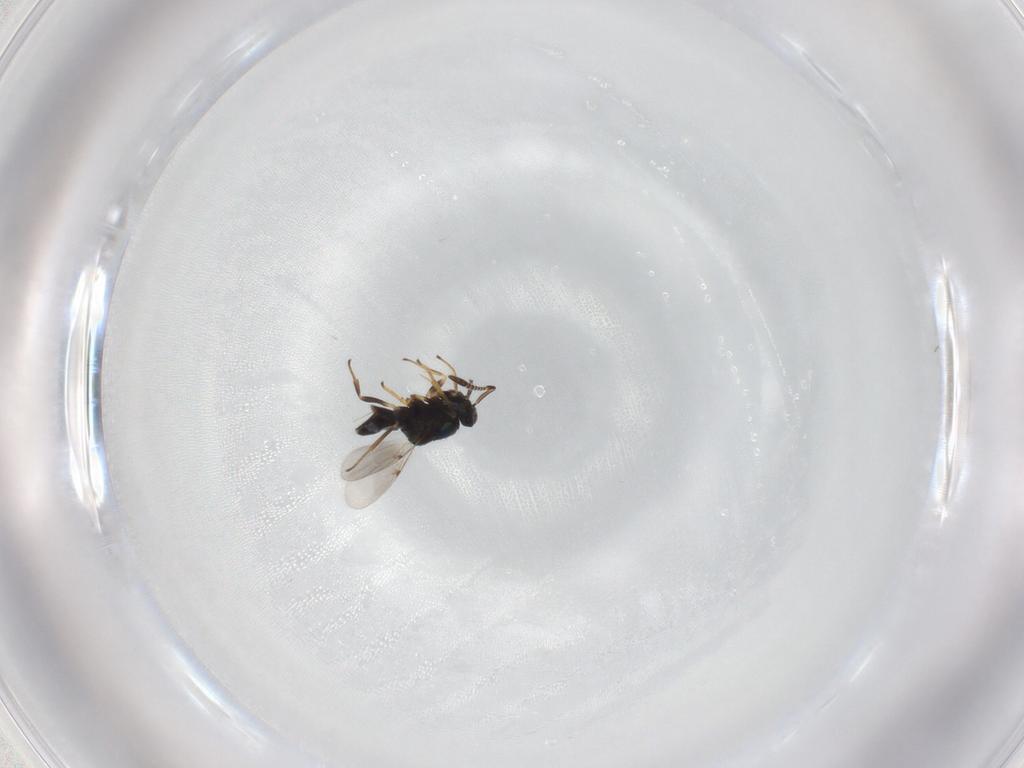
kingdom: Animalia
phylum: Arthropoda
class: Insecta
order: Hymenoptera
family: Encyrtidae
